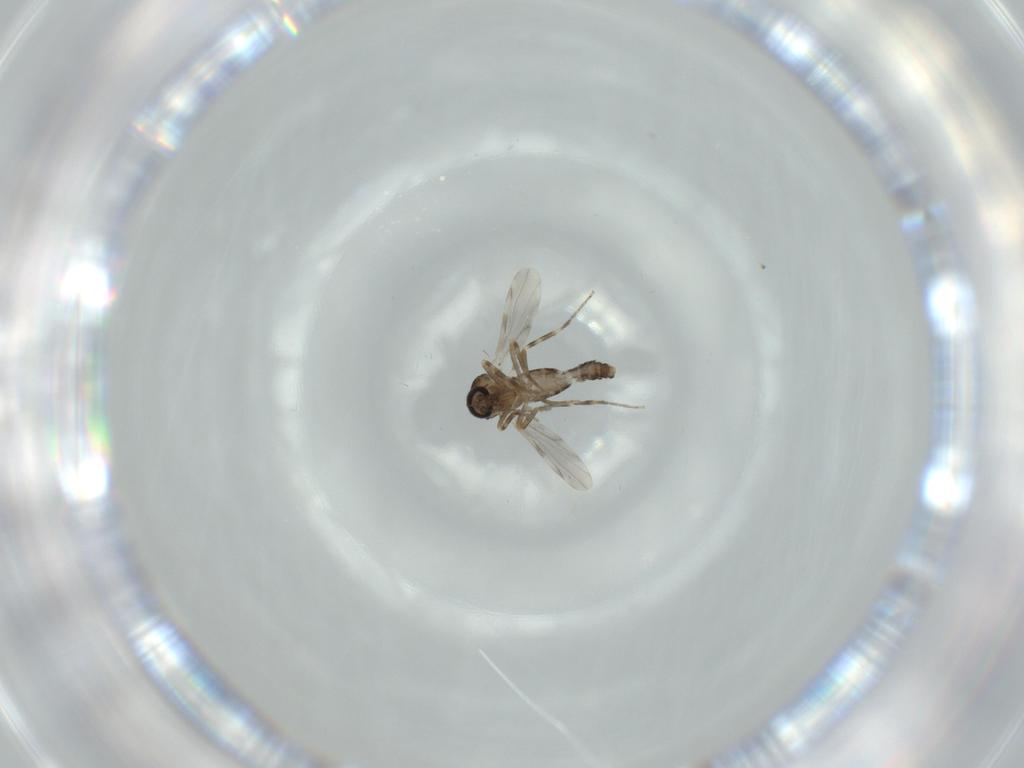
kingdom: Animalia
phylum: Arthropoda
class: Insecta
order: Diptera
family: Ceratopogonidae
